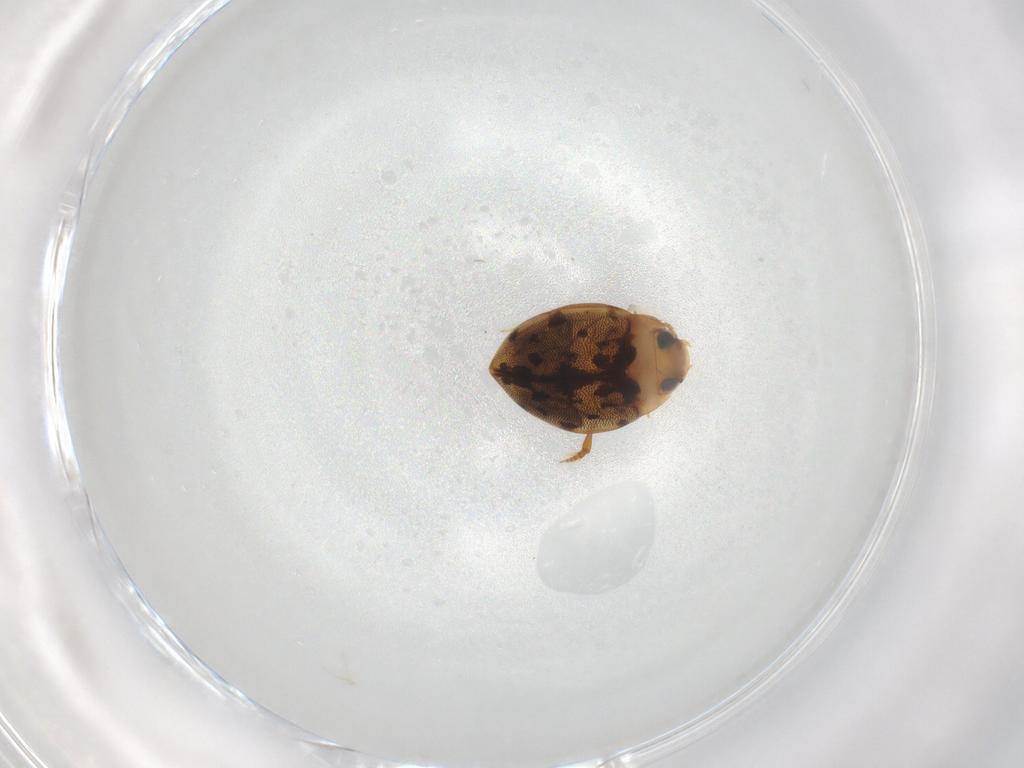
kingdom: Animalia
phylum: Arthropoda
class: Insecta
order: Coleoptera
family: Dytiscidae
